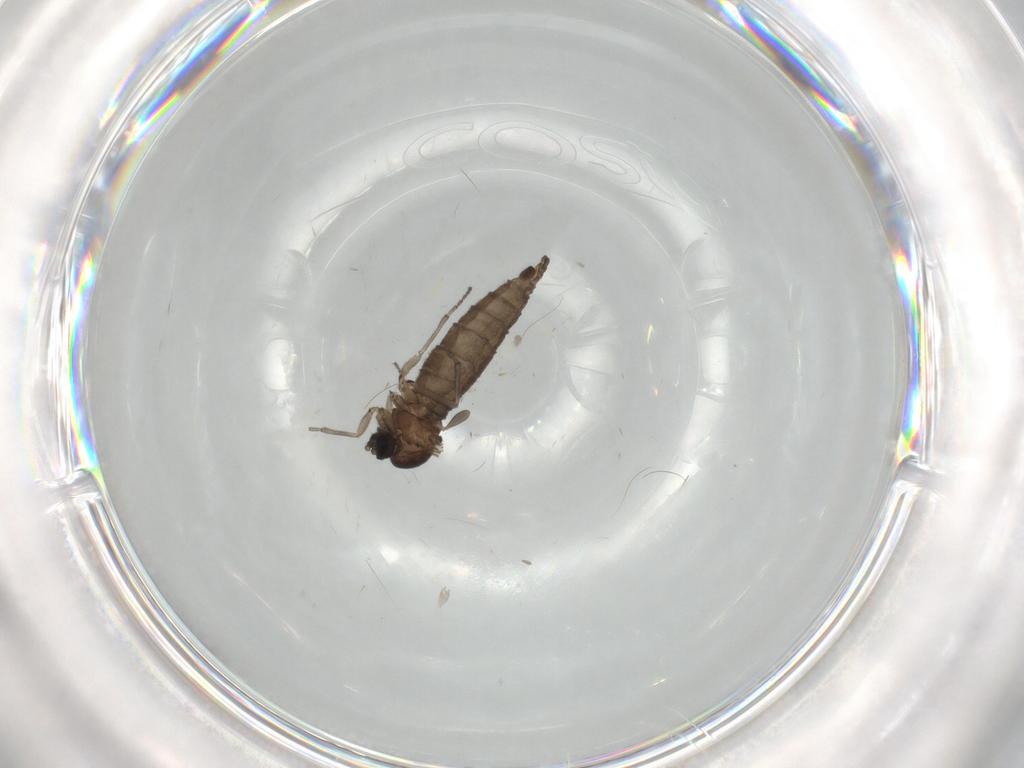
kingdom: Animalia
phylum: Arthropoda
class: Insecta
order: Diptera
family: Sciaridae
